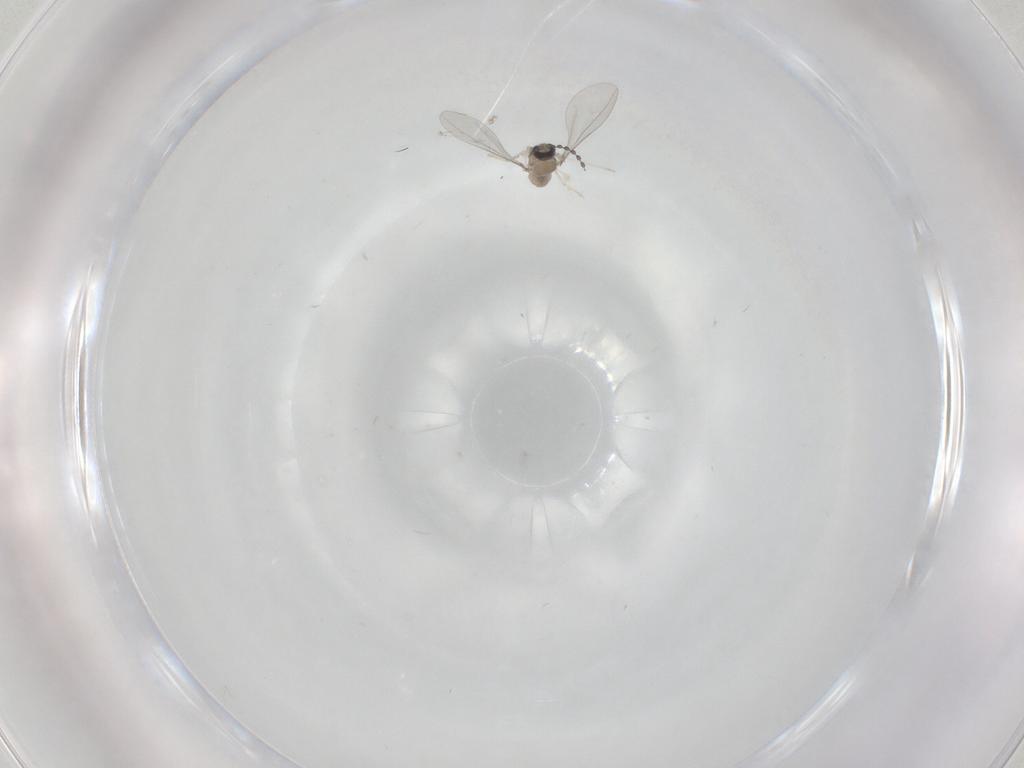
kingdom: Animalia
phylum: Arthropoda
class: Insecta
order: Diptera
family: Cecidomyiidae
